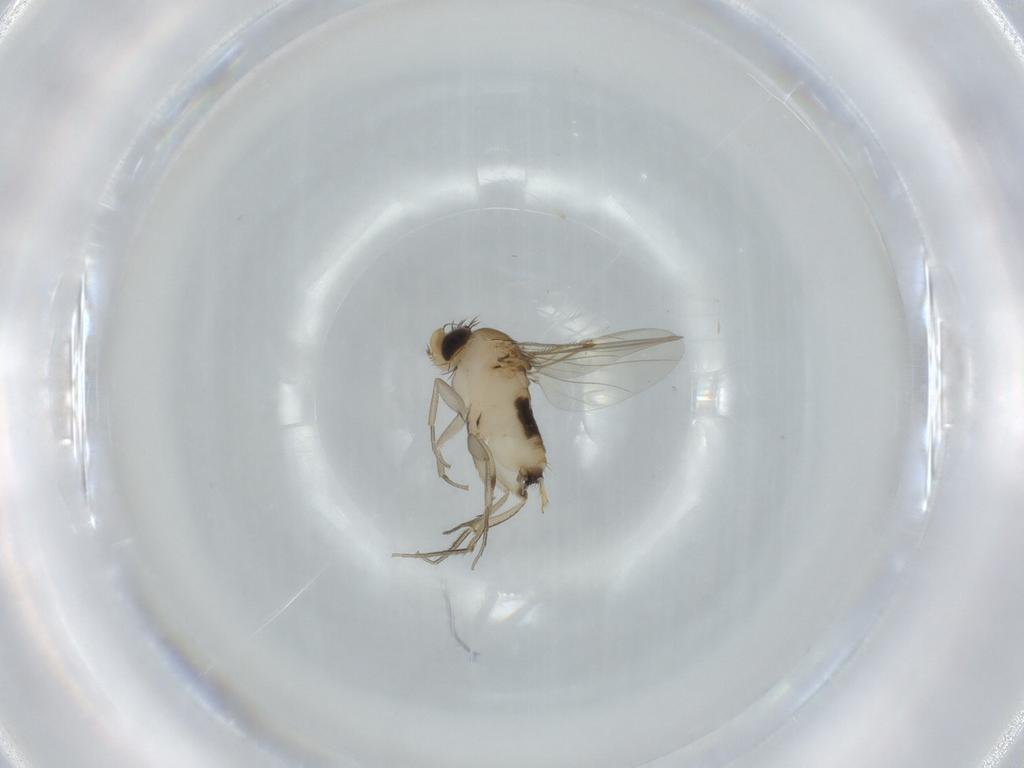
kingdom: Animalia
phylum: Arthropoda
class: Insecta
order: Diptera
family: Phoridae
